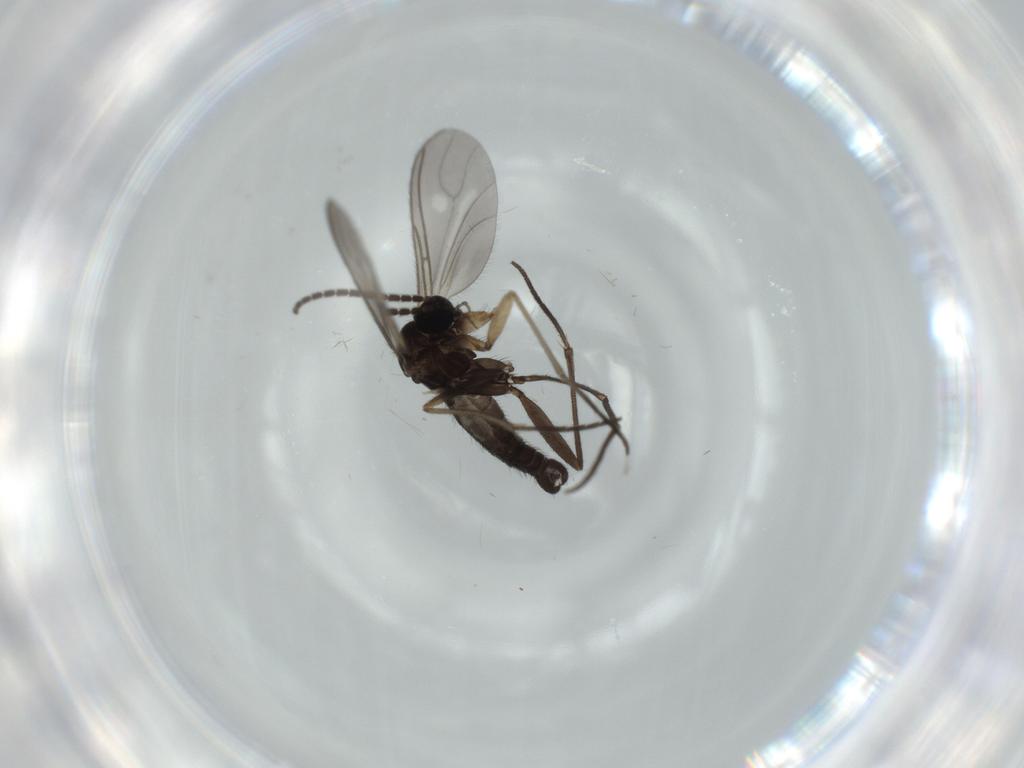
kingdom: Animalia
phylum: Arthropoda
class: Insecta
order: Diptera
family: Sciaridae
